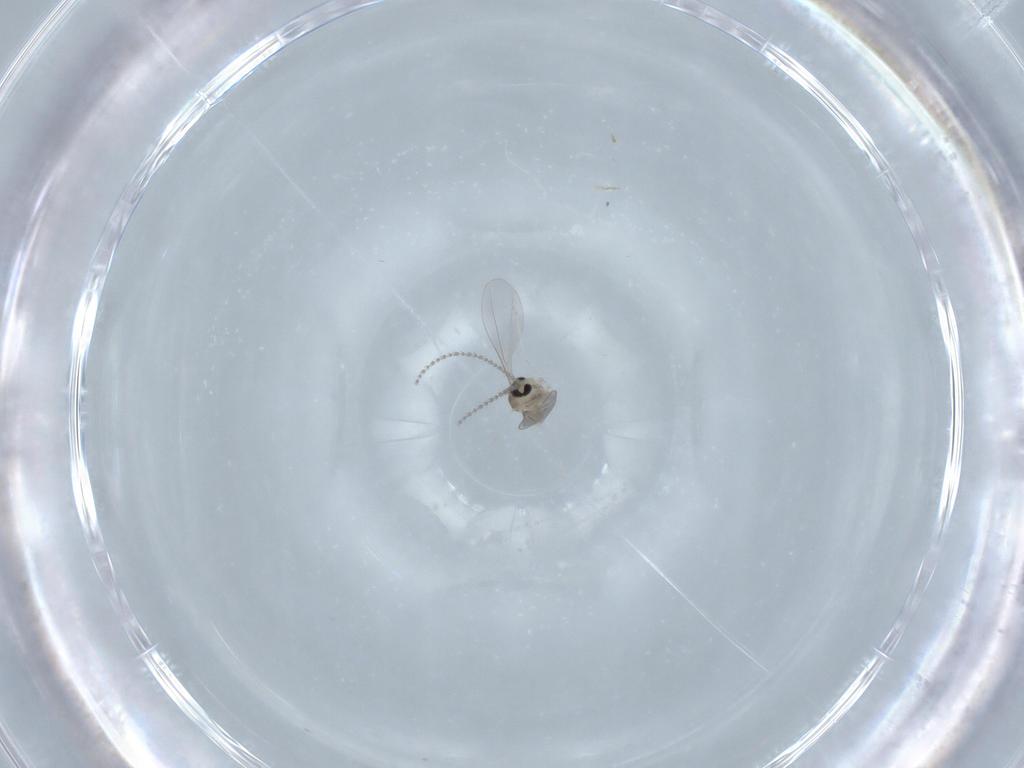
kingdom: Animalia
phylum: Arthropoda
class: Insecta
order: Diptera
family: Cecidomyiidae
